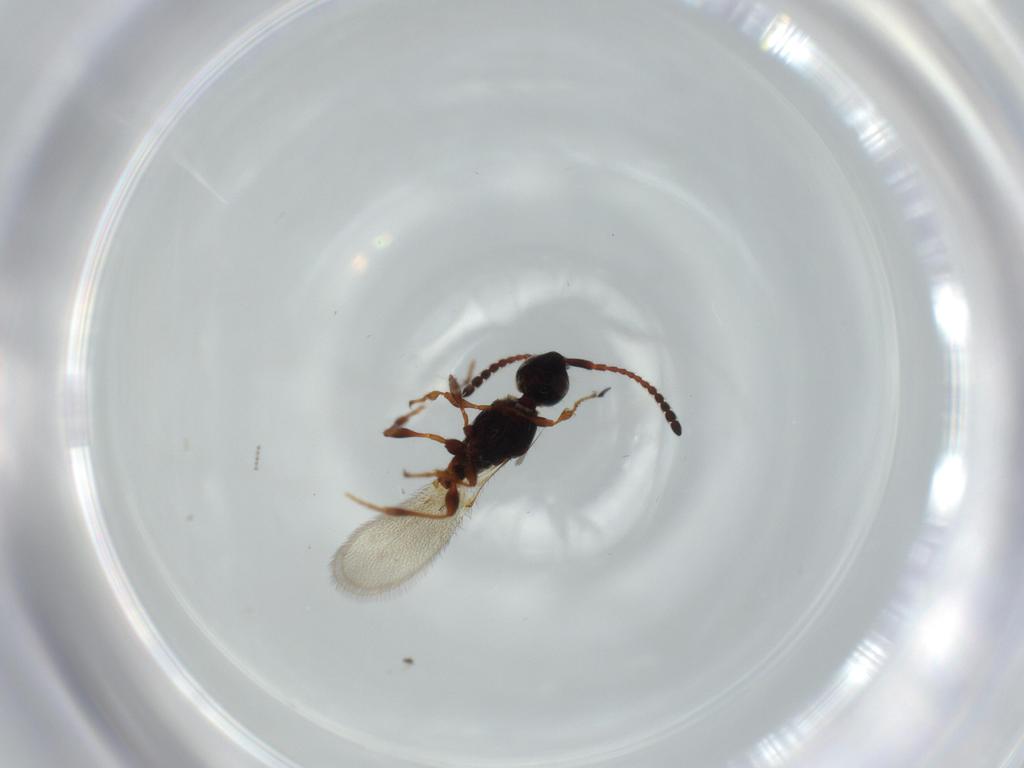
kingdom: Animalia
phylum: Arthropoda
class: Insecta
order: Hymenoptera
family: Diapriidae
